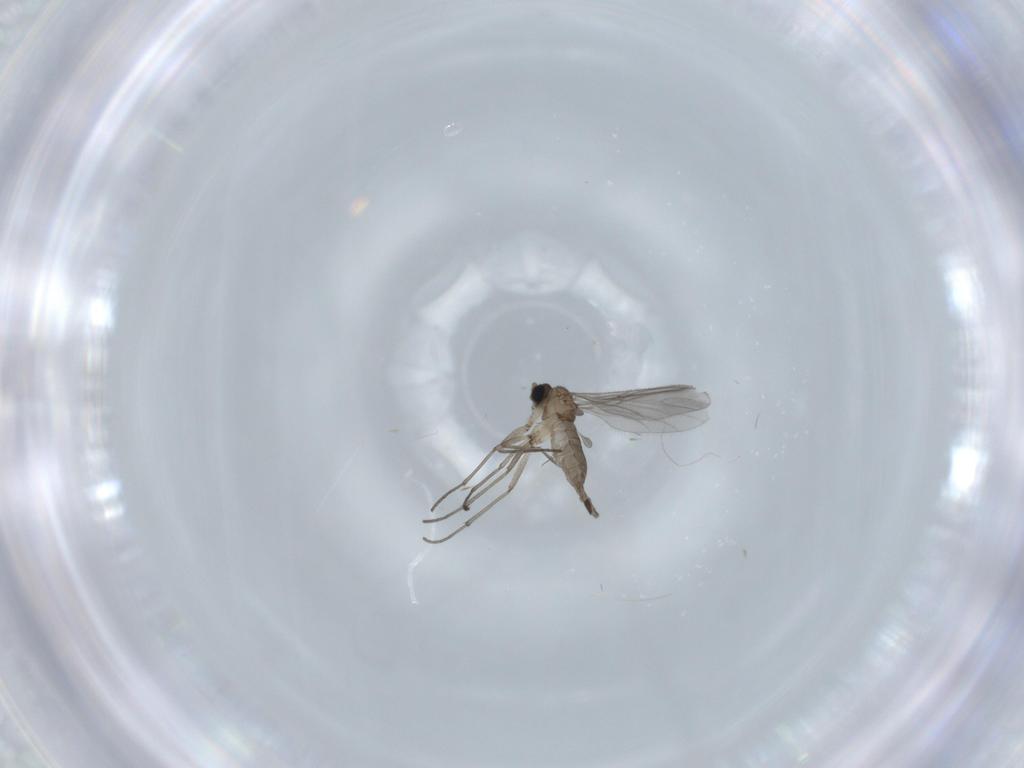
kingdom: Animalia
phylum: Arthropoda
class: Insecta
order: Diptera
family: Sciaridae
